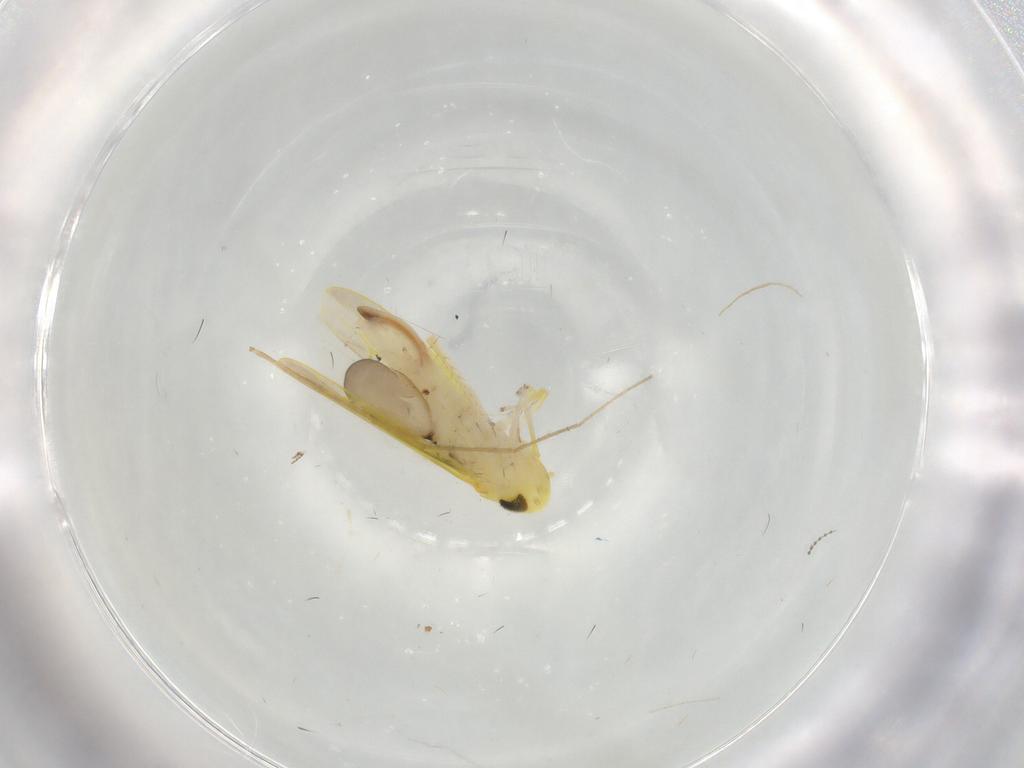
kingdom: Animalia
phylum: Arthropoda
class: Insecta
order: Hemiptera
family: Cicadellidae
